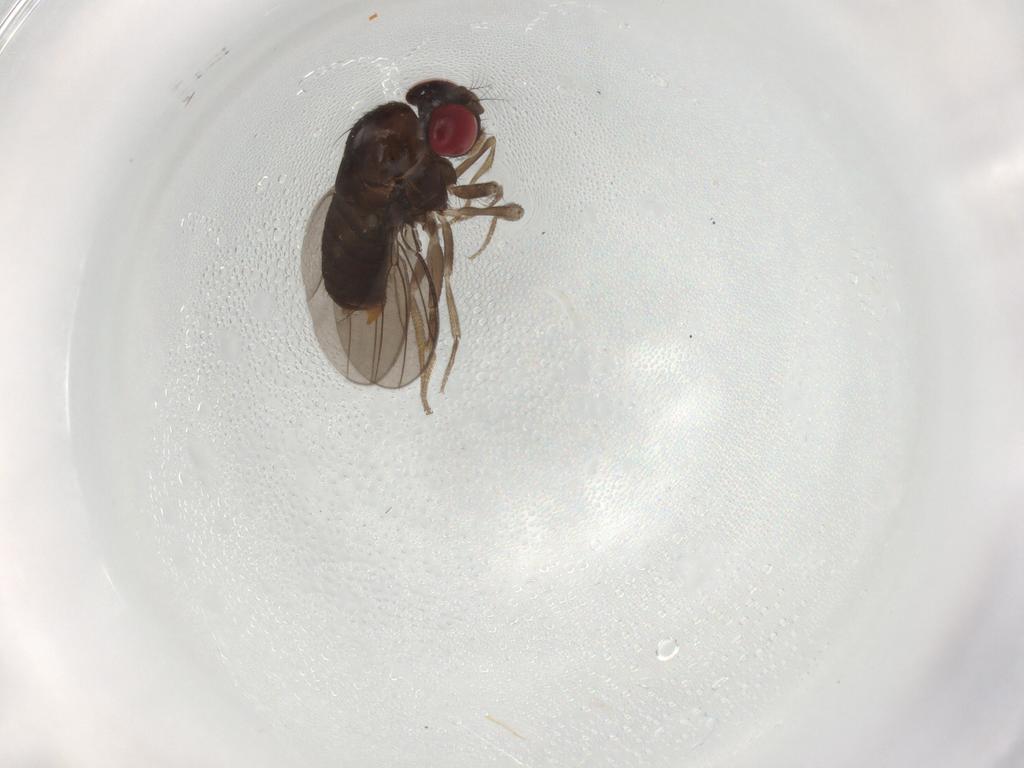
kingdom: Animalia
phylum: Arthropoda
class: Insecta
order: Diptera
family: Drosophilidae
